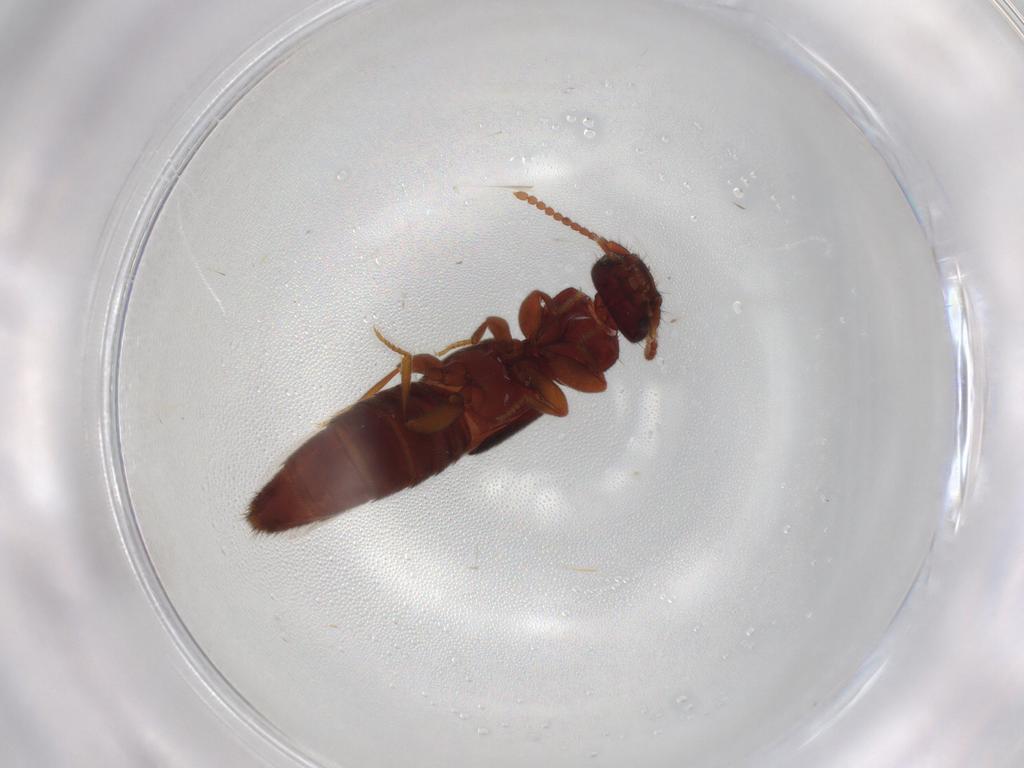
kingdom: Animalia
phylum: Arthropoda
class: Insecta
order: Coleoptera
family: Staphylinidae
